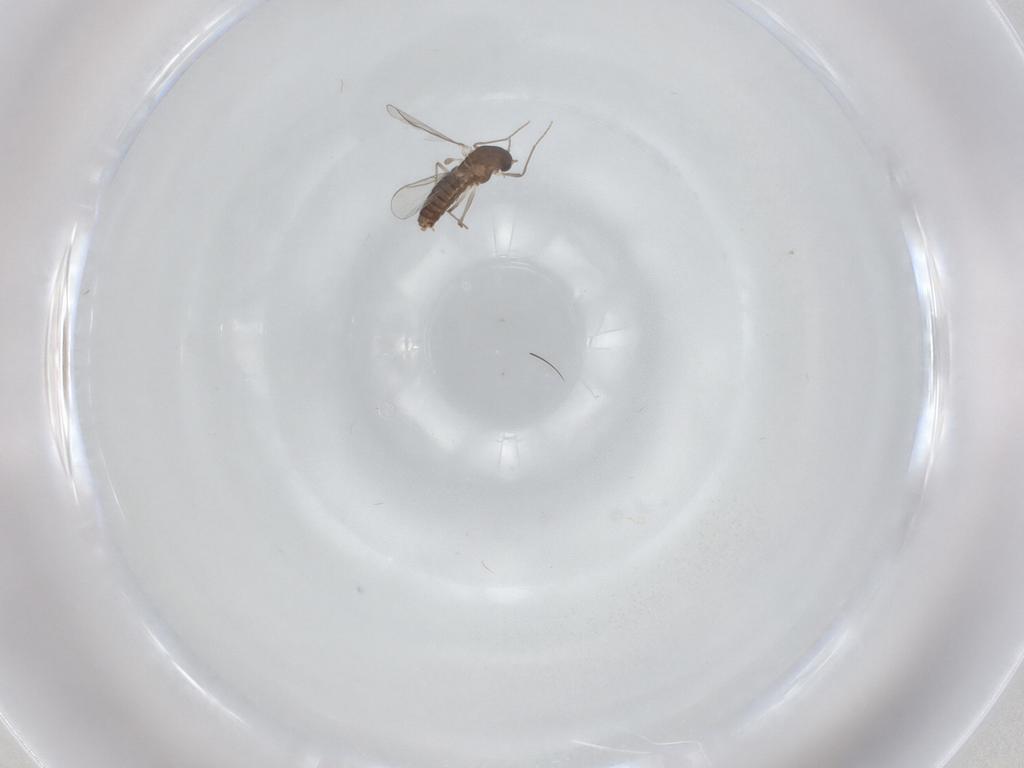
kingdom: Animalia
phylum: Arthropoda
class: Insecta
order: Diptera
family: Chironomidae
